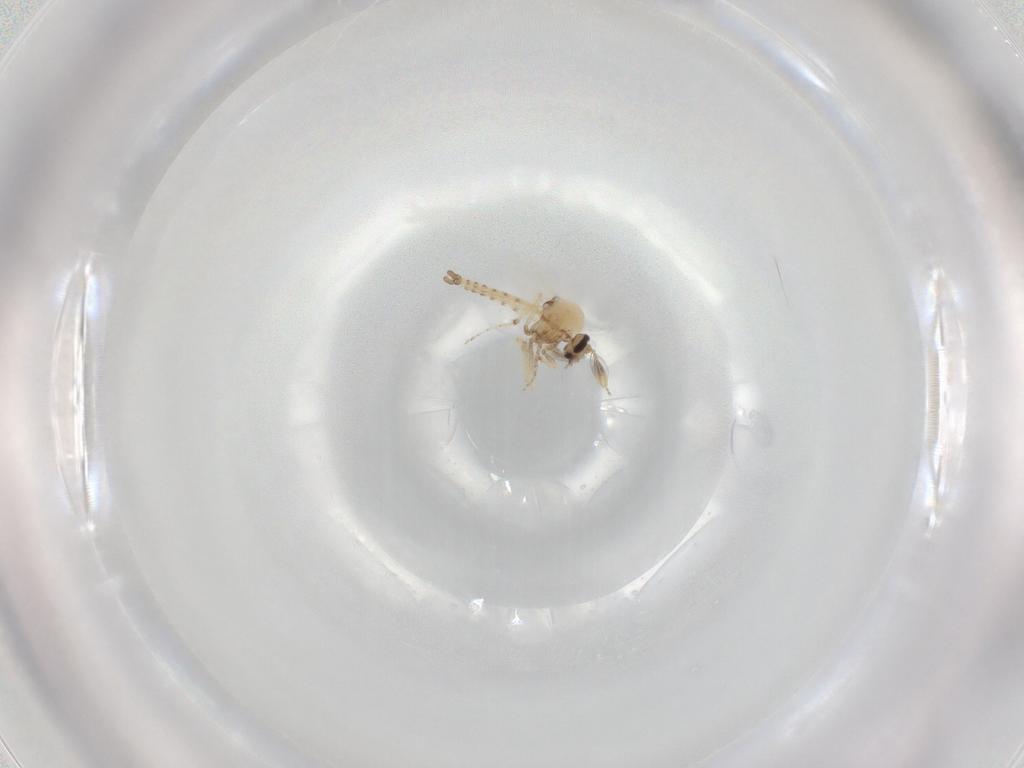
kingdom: Animalia
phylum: Arthropoda
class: Insecta
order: Diptera
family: Ceratopogonidae
